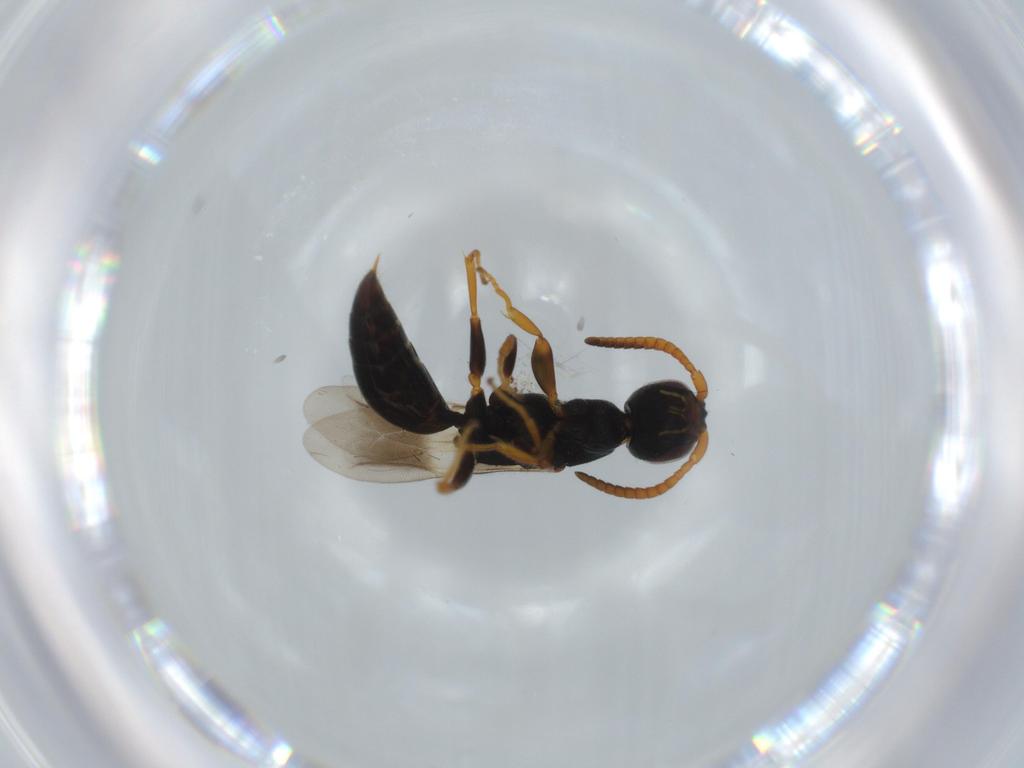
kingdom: Animalia
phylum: Arthropoda
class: Insecta
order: Hymenoptera
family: Bethylidae
